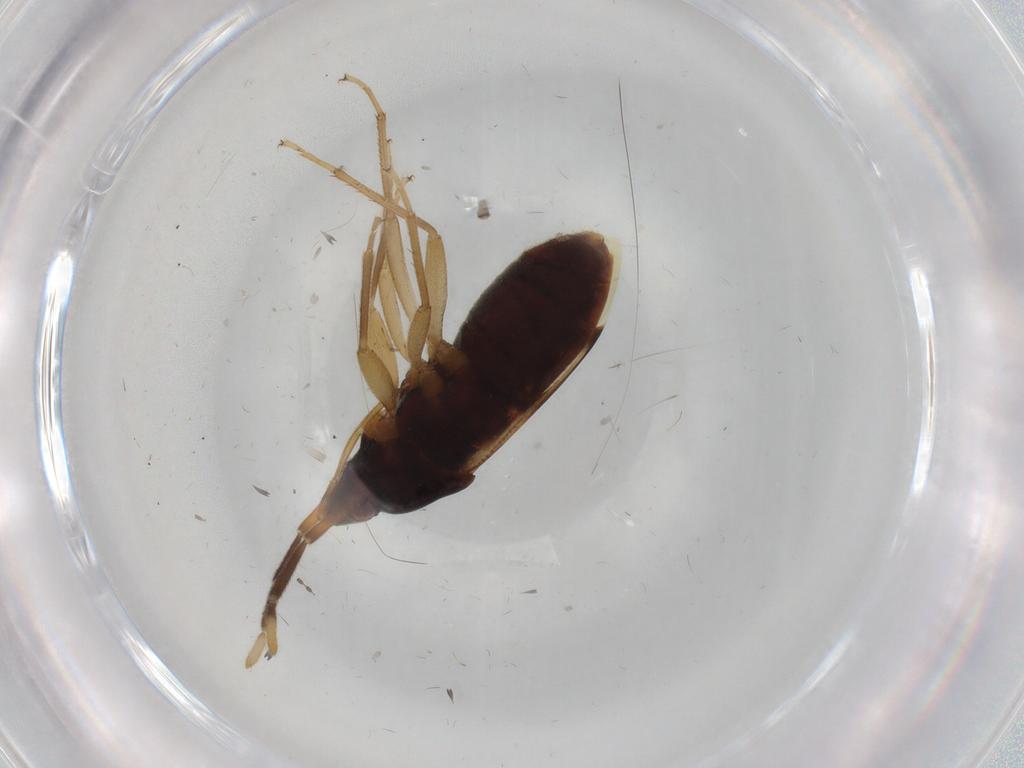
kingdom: Animalia
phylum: Arthropoda
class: Insecta
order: Hemiptera
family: Rhyparochromidae
